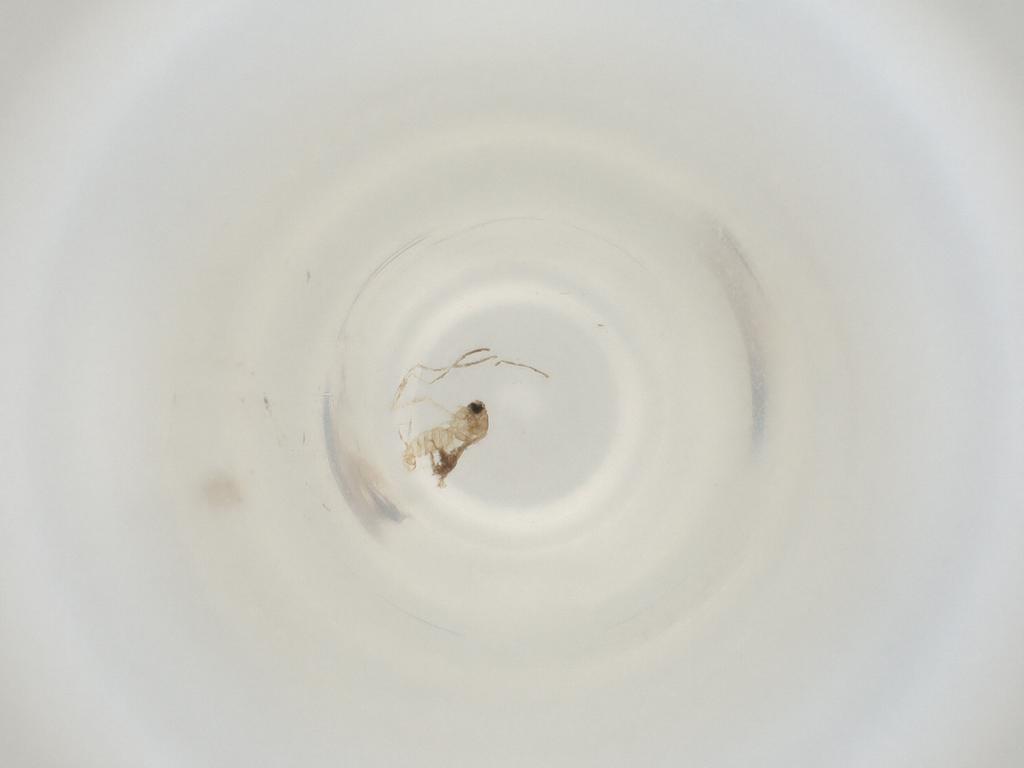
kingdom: Animalia
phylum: Arthropoda
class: Insecta
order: Diptera
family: Cecidomyiidae
